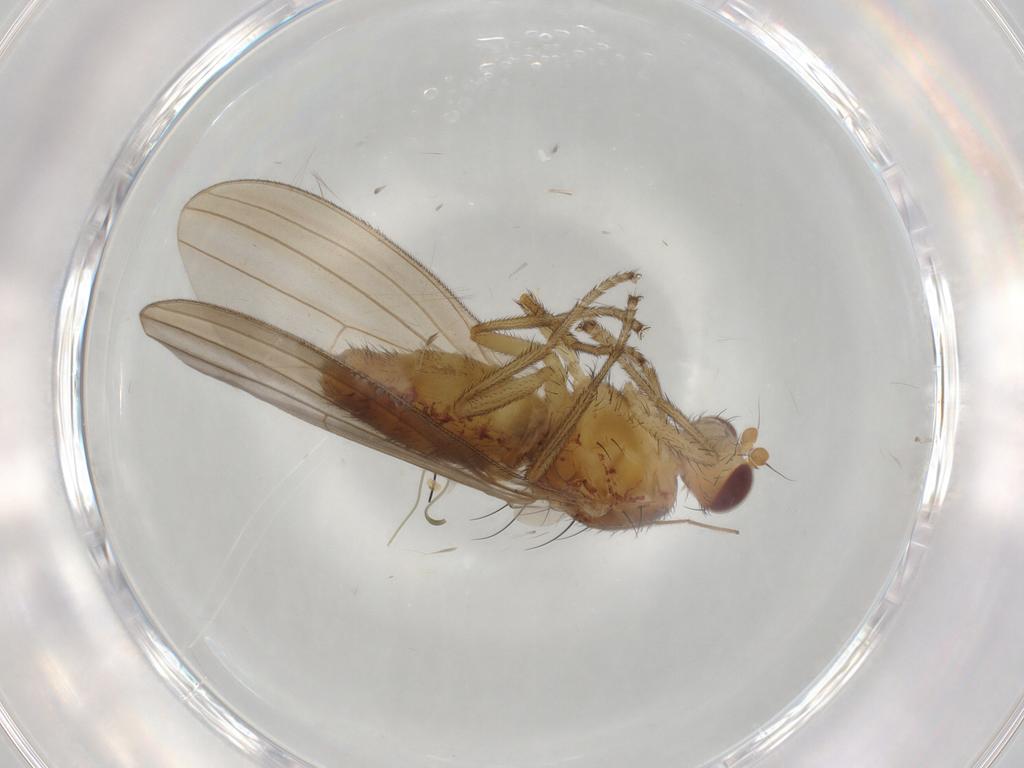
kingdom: Animalia
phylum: Arthropoda
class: Insecta
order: Diptera
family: Natalimyzidae
